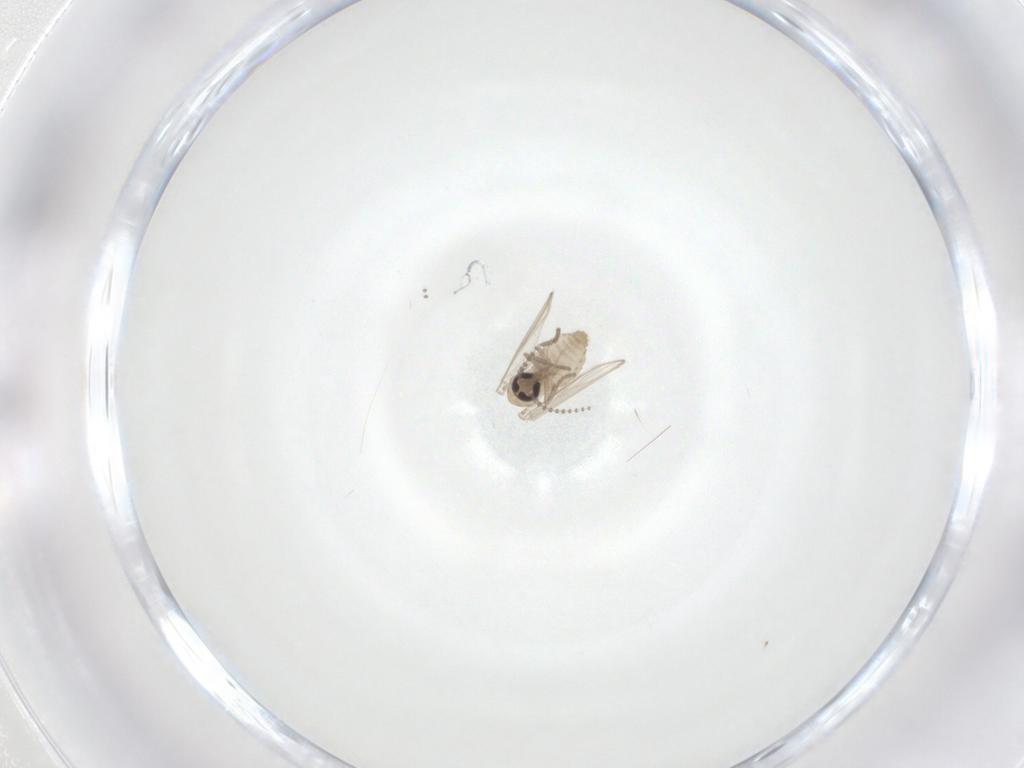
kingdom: Animalia
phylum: Arthropoda
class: Insecta
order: Diptera
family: Psychodidae
